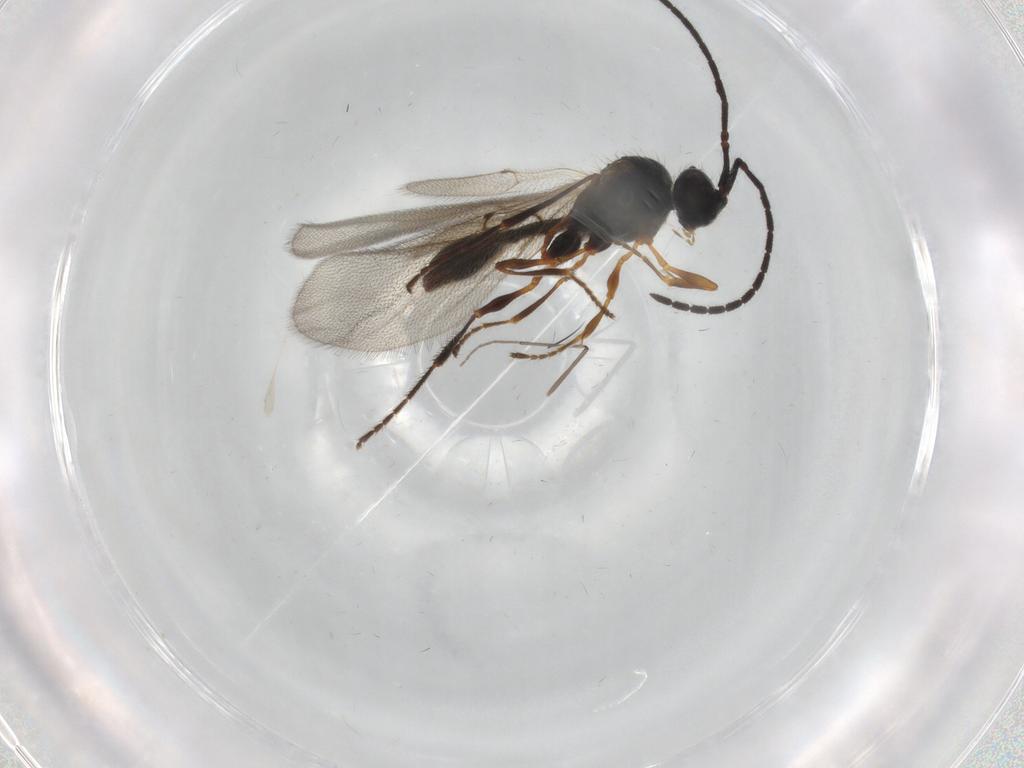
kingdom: Animalia
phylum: Arthropoda
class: Insecta
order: Hymenoptera
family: Diapriidae
